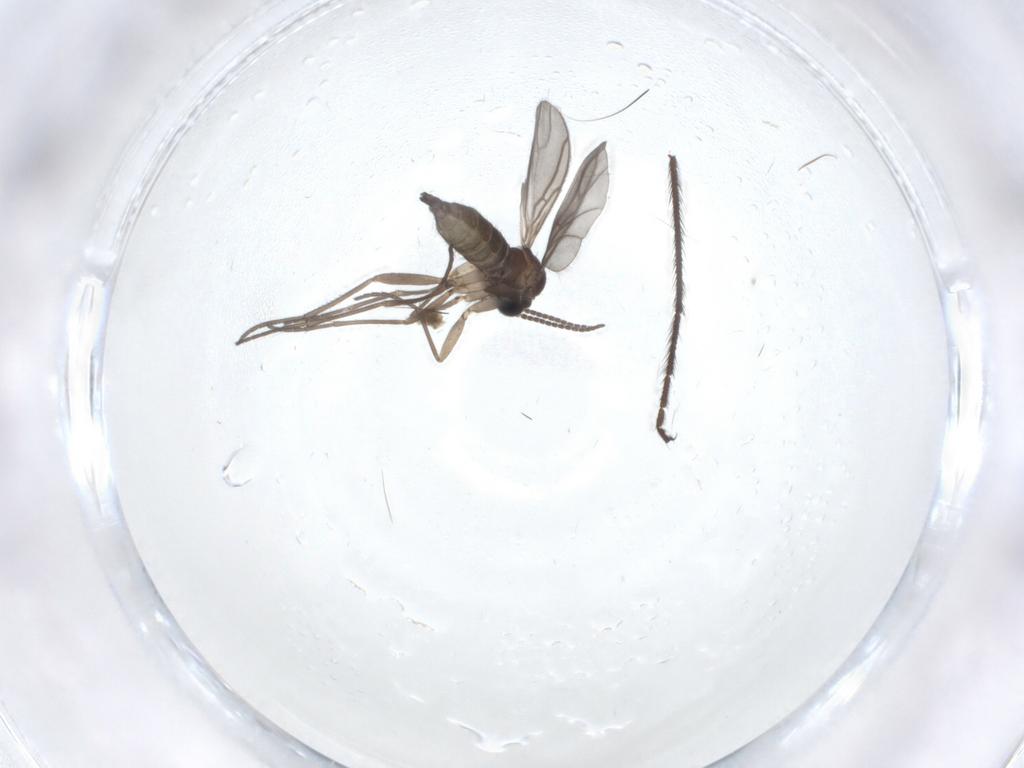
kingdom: Animalia
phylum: Arthropoda
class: Insecta
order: Diptera
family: Sciaridae
